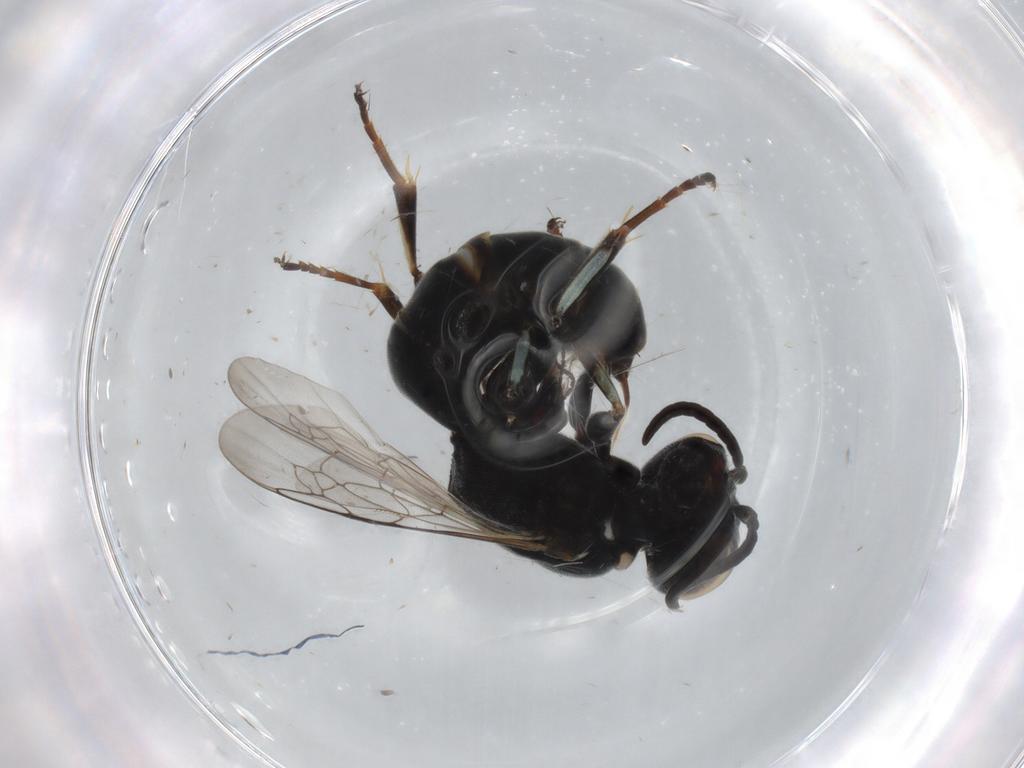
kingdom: Animalia
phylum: Arthropoda
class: Insecta
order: Hymenoptera
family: Crabronidae
